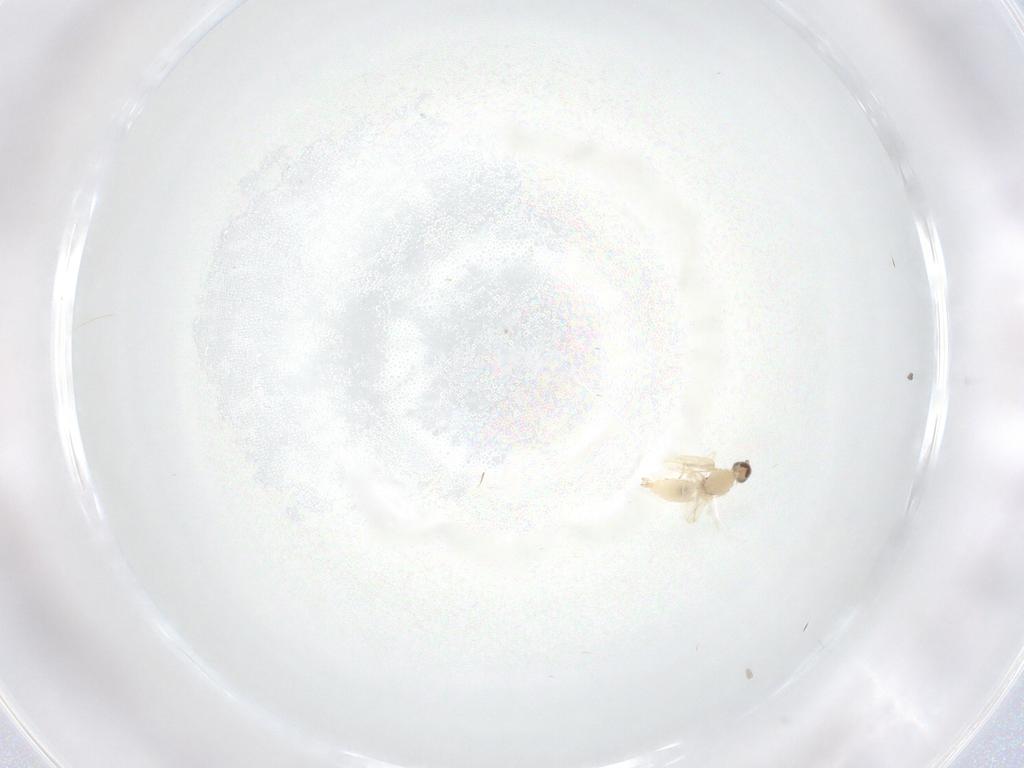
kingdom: Animalia
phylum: Arthropoda
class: Insecta
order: Diptera
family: Cecidomyiidae
